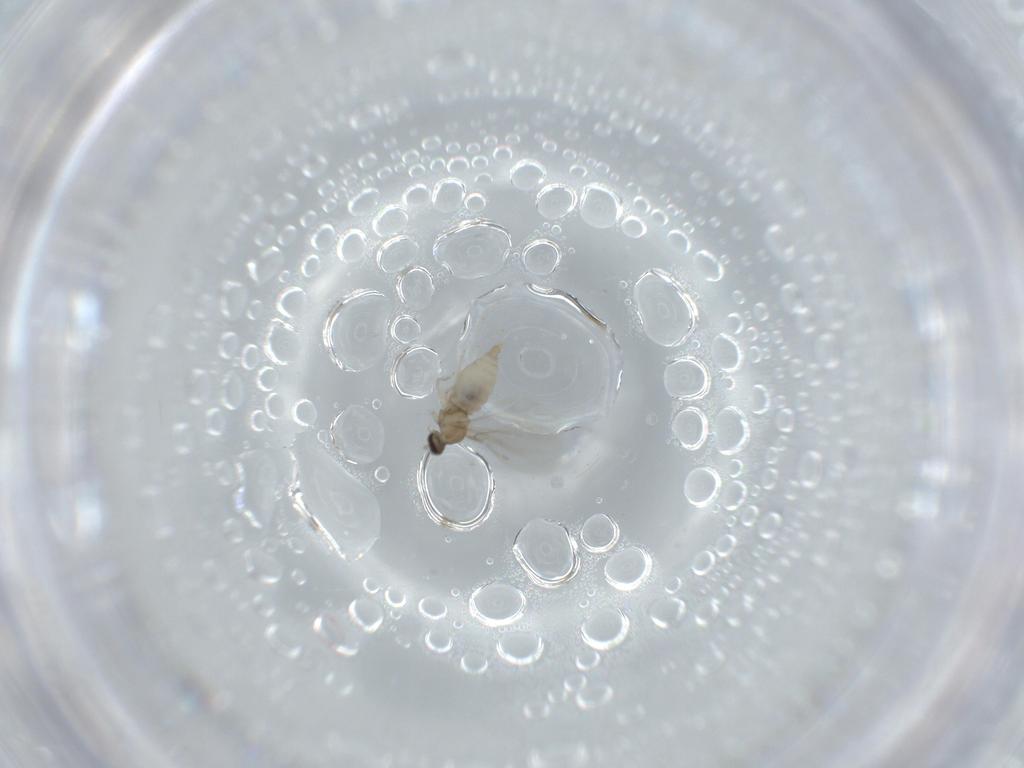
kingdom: Animalia
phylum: Arthropoda
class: Insecta
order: Diptera
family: Cecidomyiidae
